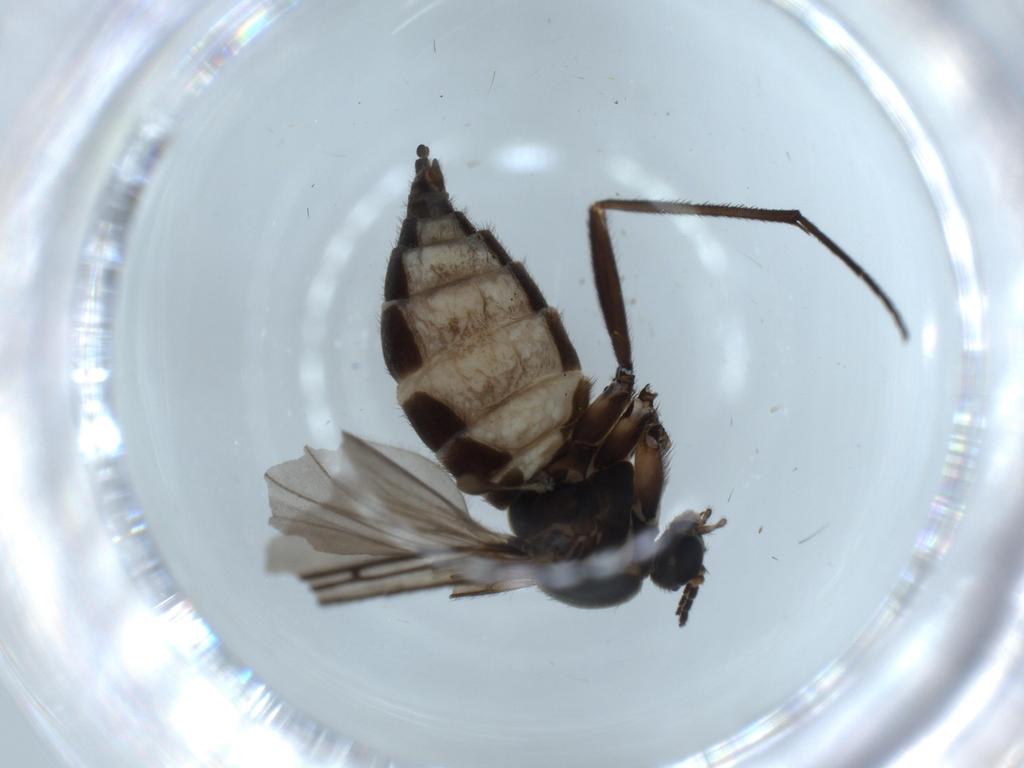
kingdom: Animalia
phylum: Arthropoda
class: Insecta
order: Diptera
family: Sciaridae
